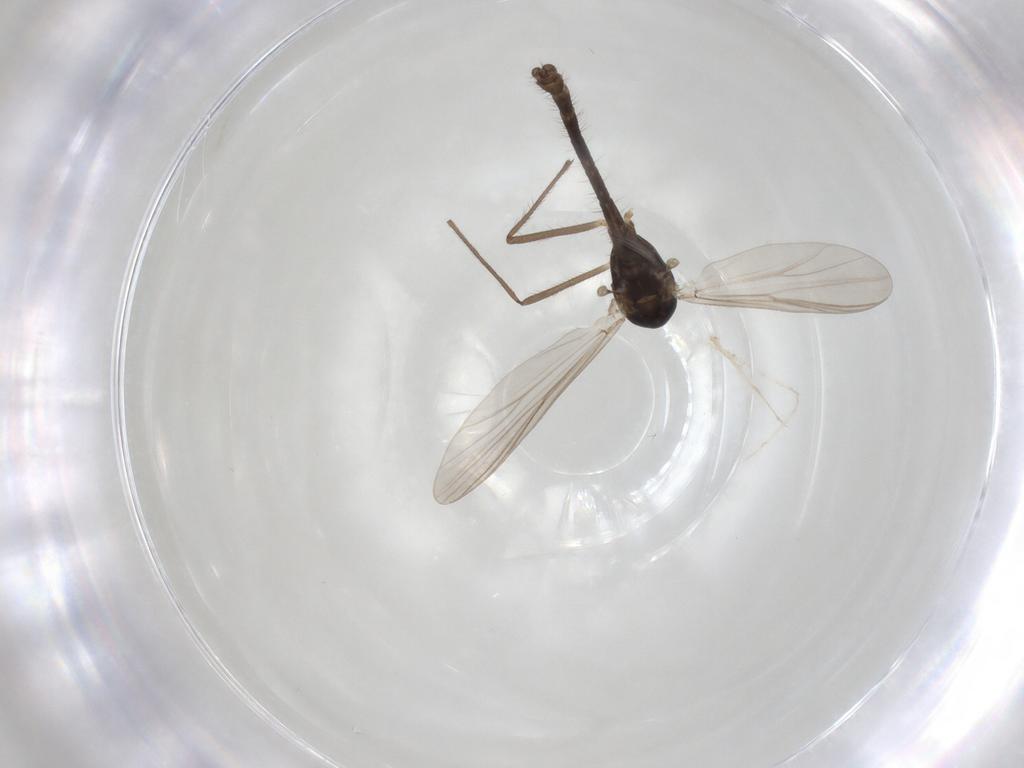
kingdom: Animalia
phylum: Arthropoda
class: Insecta
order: Diptera
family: Chironomidae
